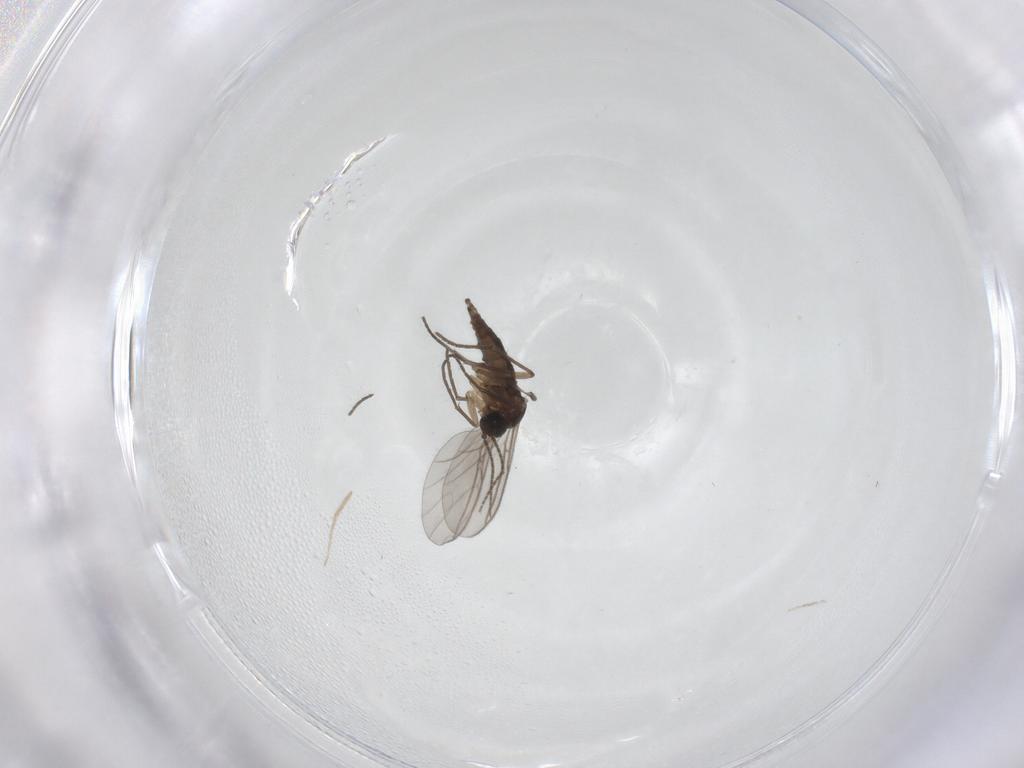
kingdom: Animalia
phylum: Arthropoda
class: Insecta
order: Diptera
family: Sciaridae
